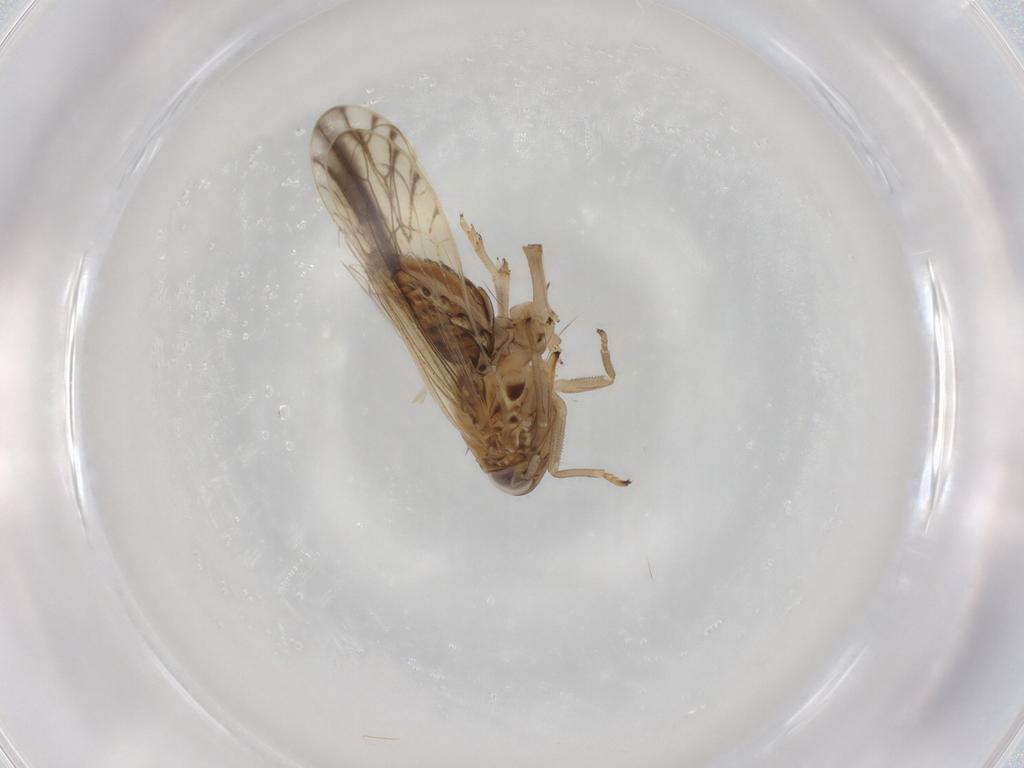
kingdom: Animalia
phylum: Arthropoda
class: Insecta
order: Hemiptera
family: Delphacidae
